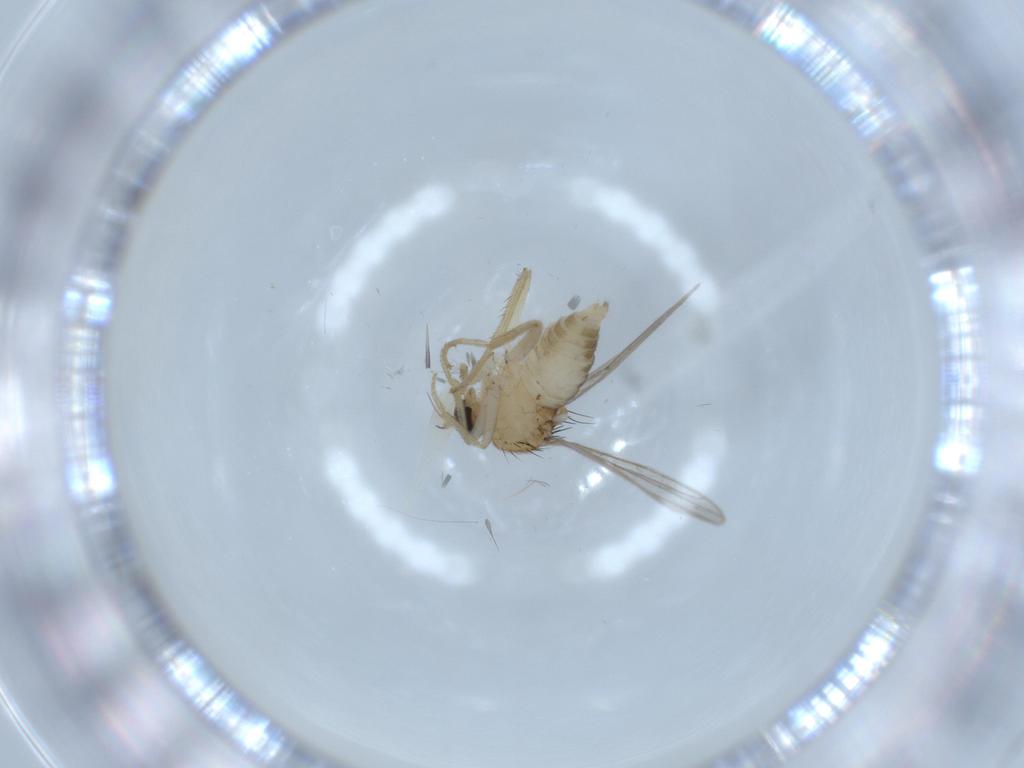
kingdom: Animalia
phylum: Arthropoda
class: Insecta
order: Diptera
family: Hybotidae
